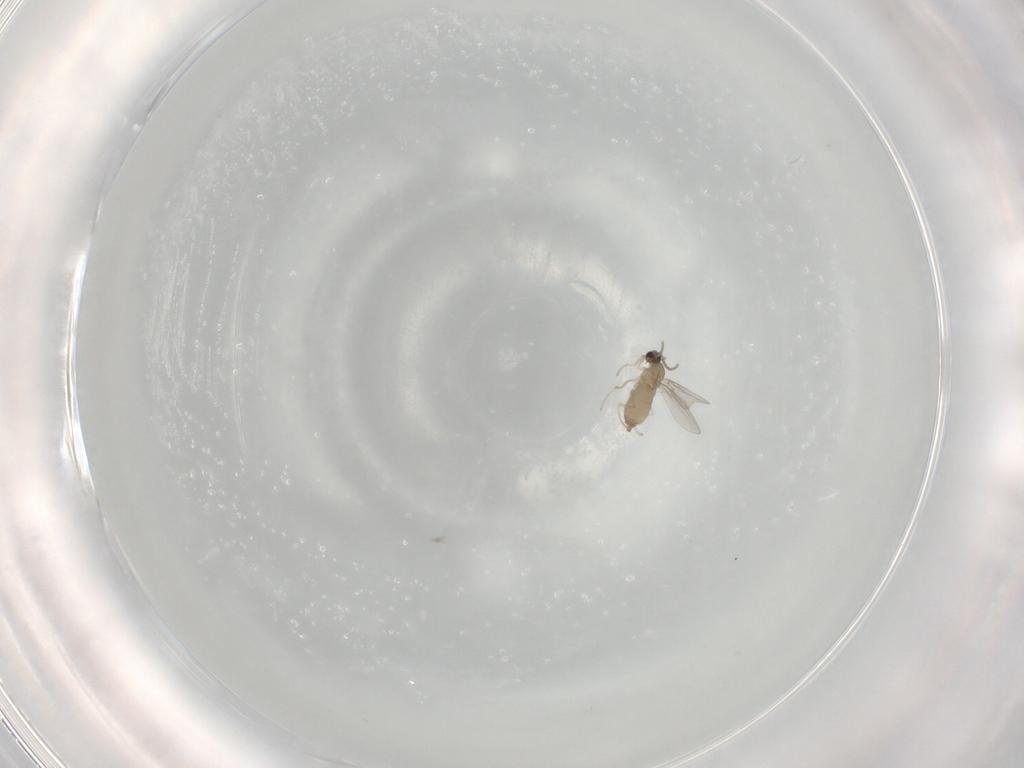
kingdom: Animalia
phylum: Arthropoda
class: Insecta
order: Diptera
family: Cecidomyiidae
